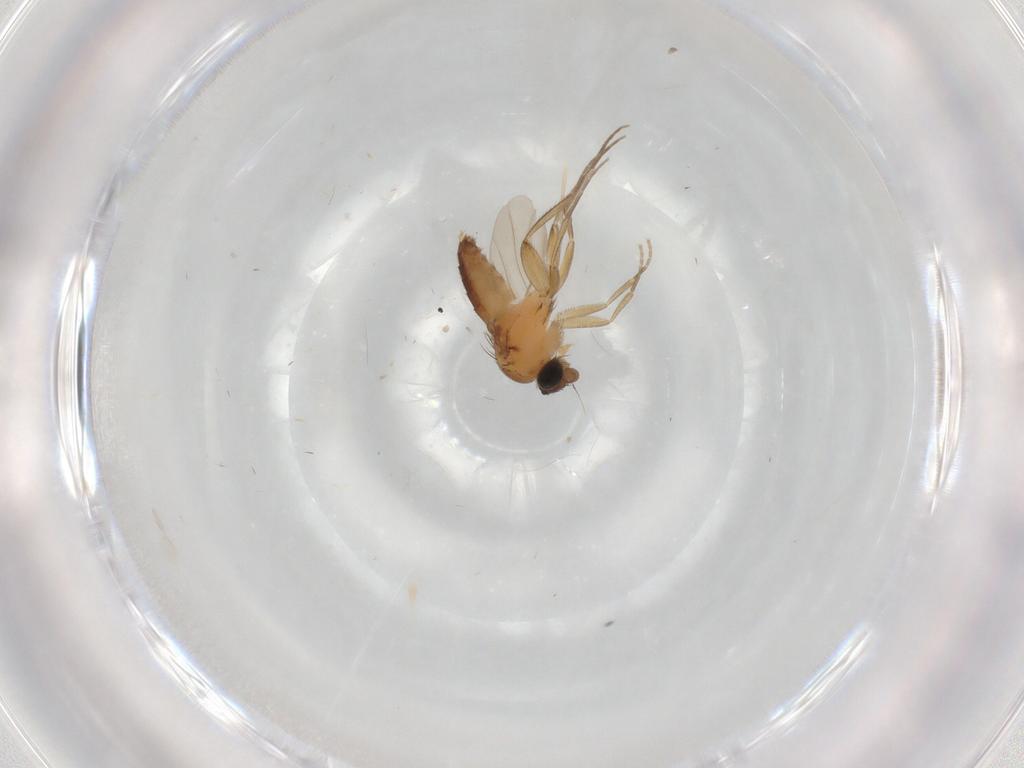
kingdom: Animalia
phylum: Arthropoda
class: Insecta
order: Diptera
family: Phoridae
